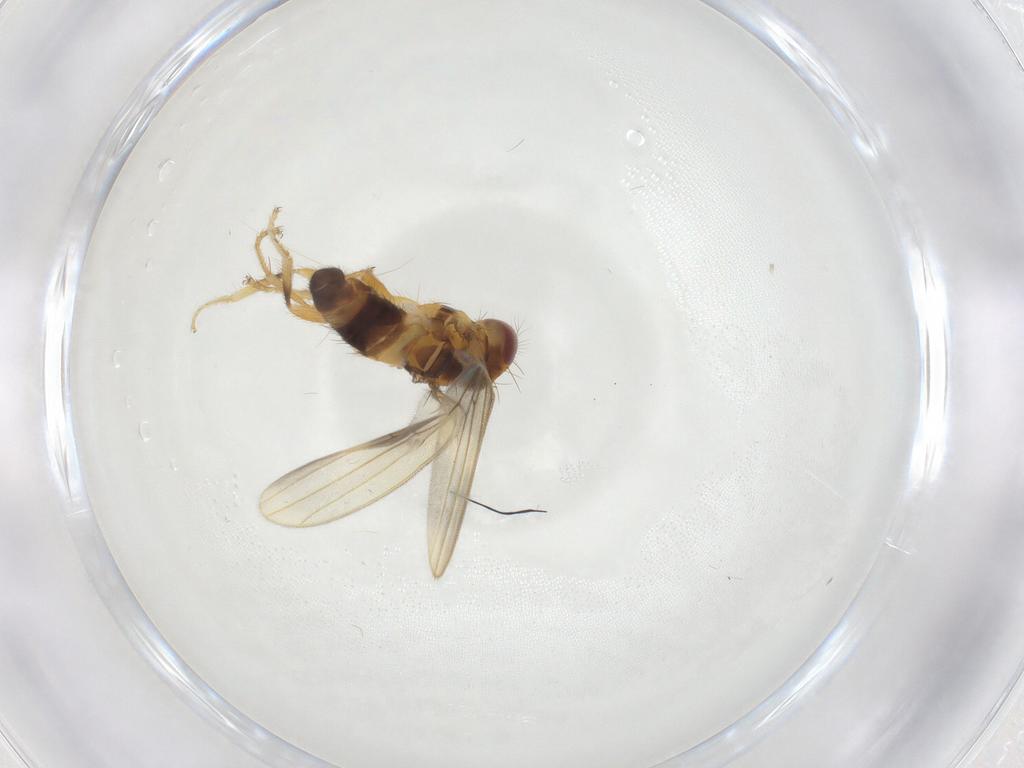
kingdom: Animalia
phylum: Arthropoda
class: Insecta
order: Diptera
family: Periscelididae
